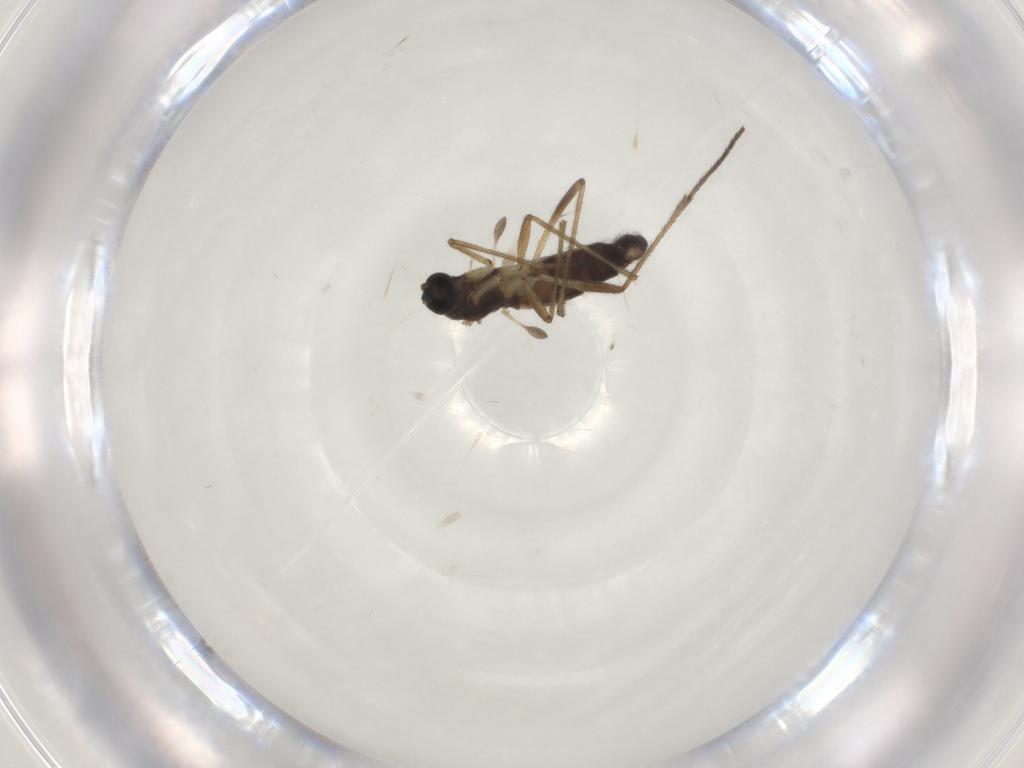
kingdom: Animalia
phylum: Arthropoda
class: Insecta
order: Diptera
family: Sciaridae
